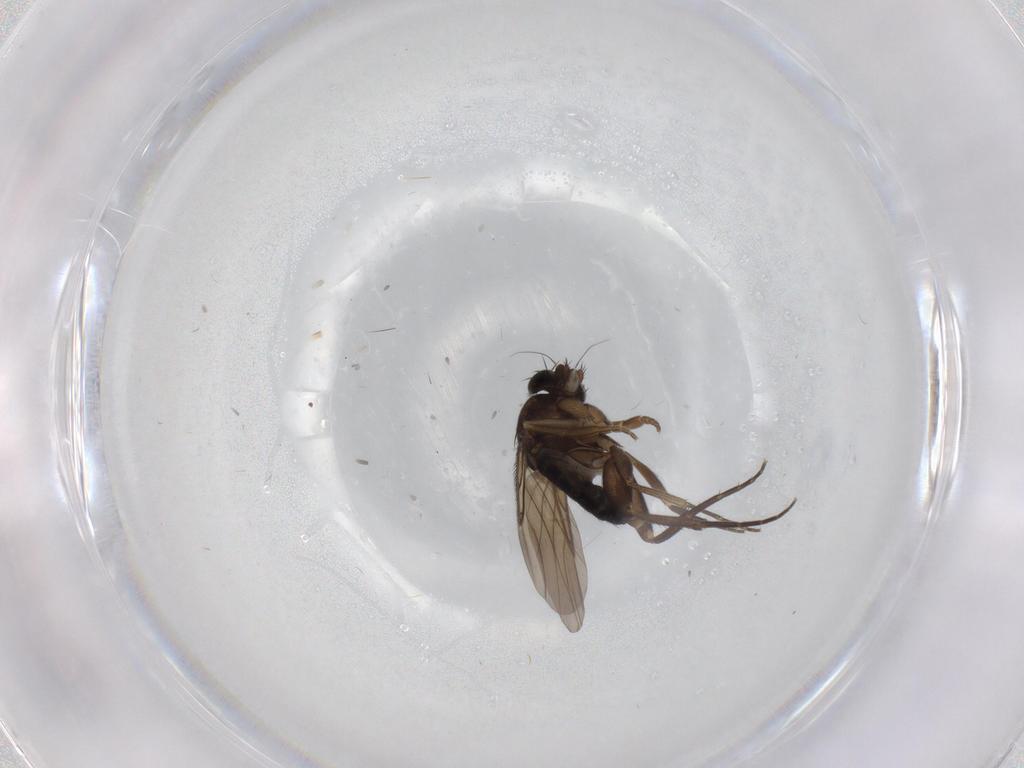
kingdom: Animalia
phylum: Arthropoda
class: Insecta
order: Diptera
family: Phoridae
